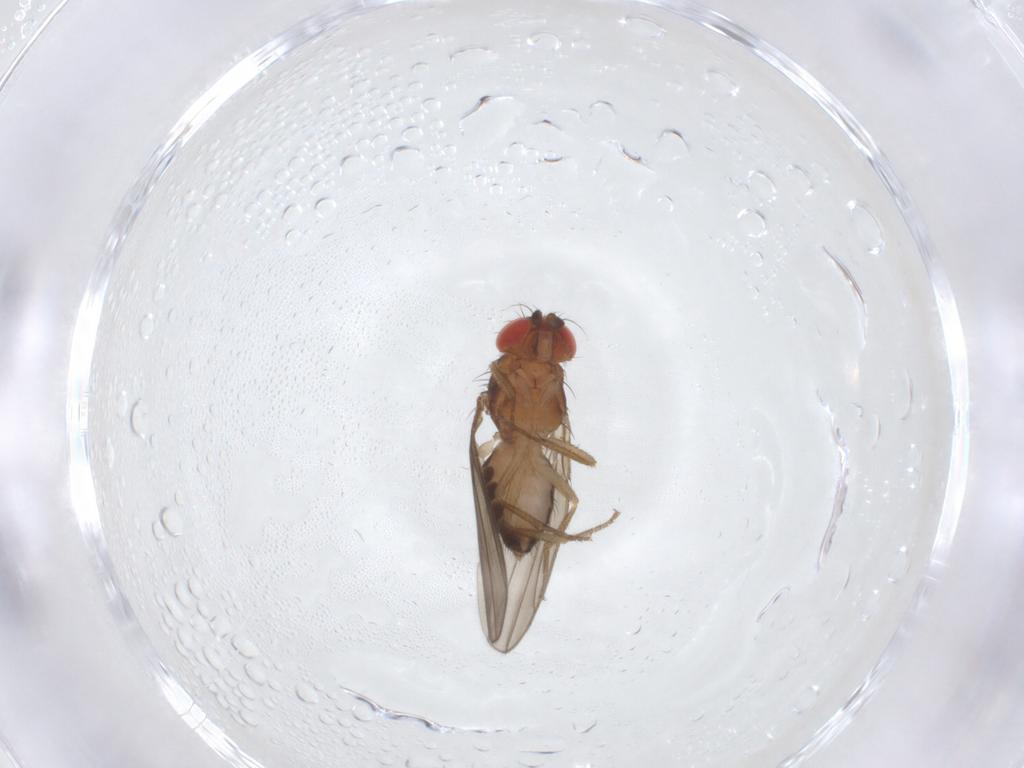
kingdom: Animalia
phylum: Arthropoda
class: Insecta
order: Diptera
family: Drosophilidae
